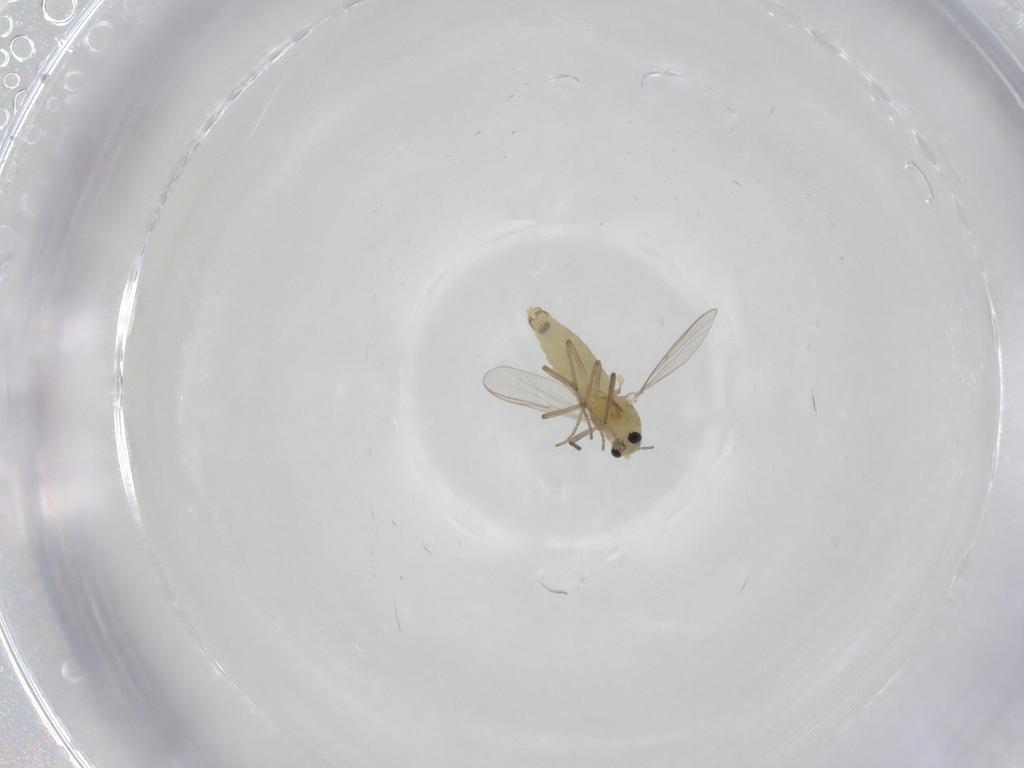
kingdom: Animalia
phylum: Arthropoda
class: Insecta
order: Diptera
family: Chironomidae
